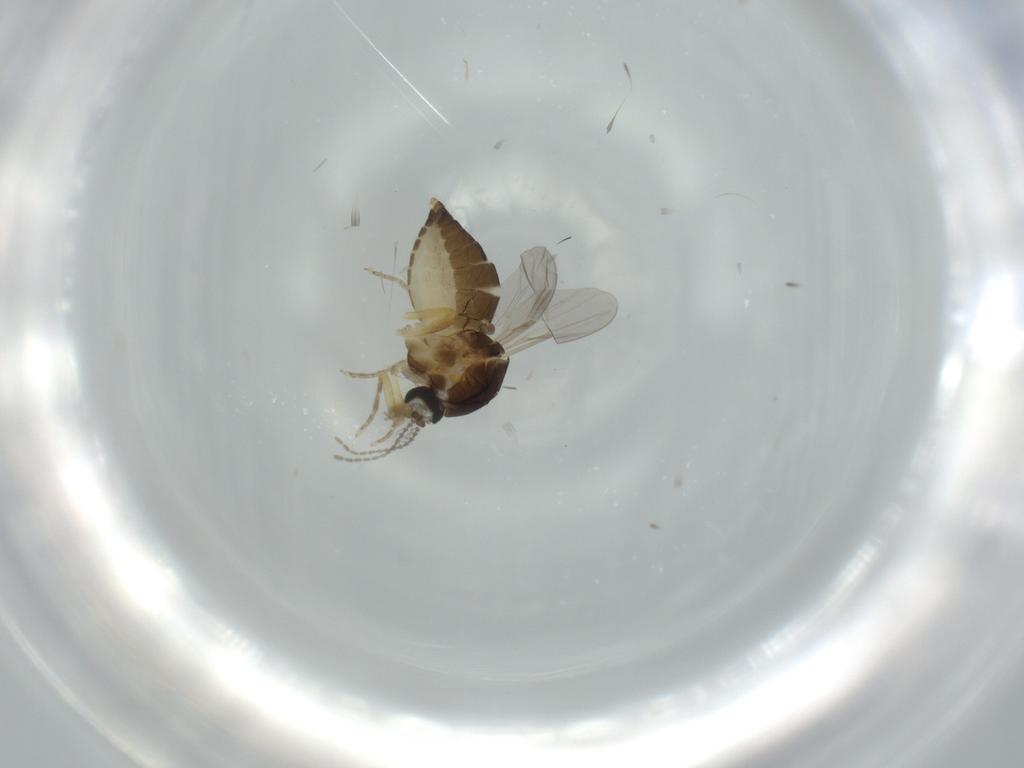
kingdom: Animalia
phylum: Arthropoda
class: Insecta
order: Diptera
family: Ceratopogonidae
